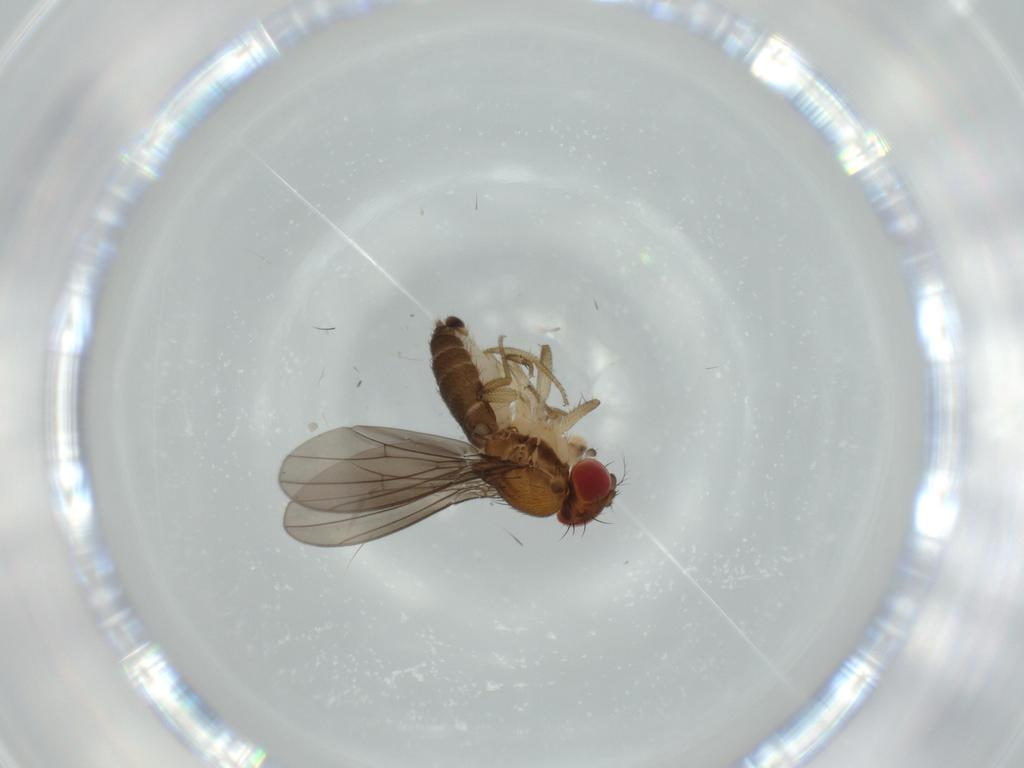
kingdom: Animalia
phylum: Arthropoda
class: Insecta
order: Diptera
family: Drosophilidae
